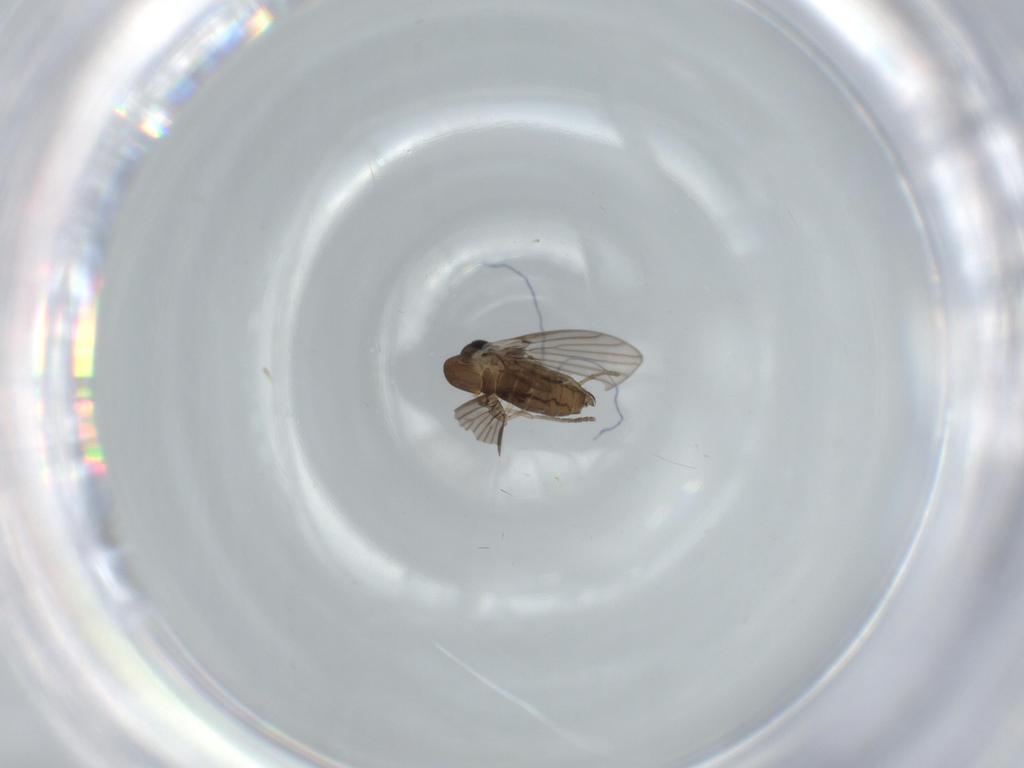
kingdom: Animalia
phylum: Arthropoda
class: Insecta
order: Diptera
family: Psychodidae
